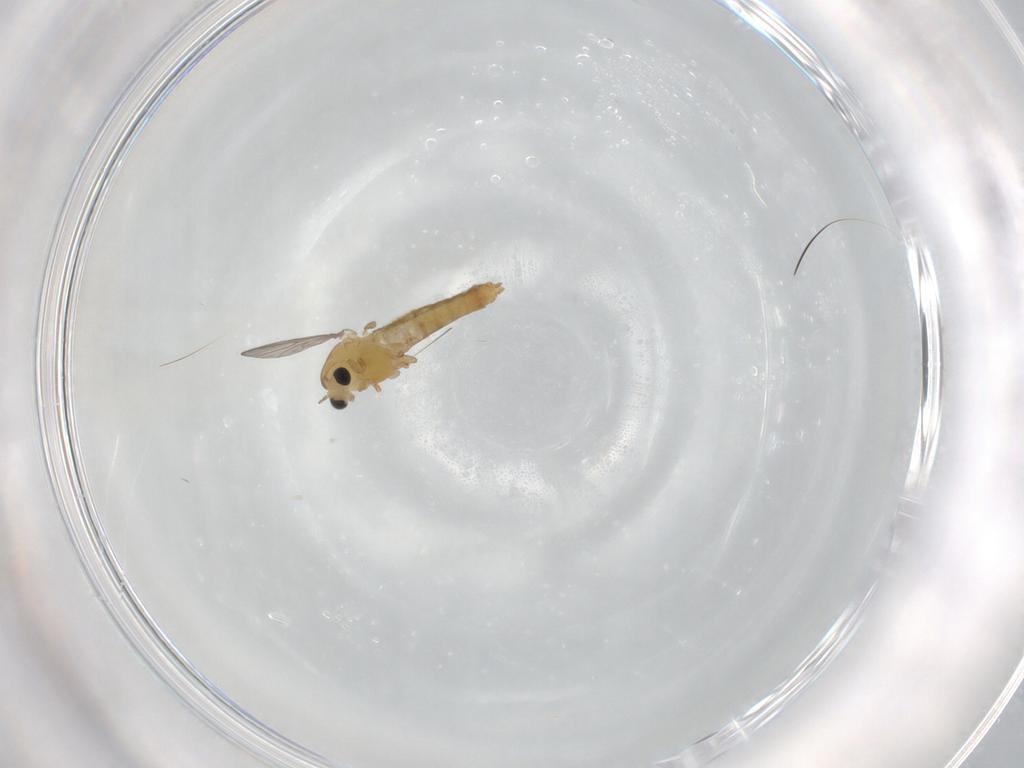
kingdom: Animalia
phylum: Arthropoda
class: Insecta
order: Diptera
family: Chironomidae
